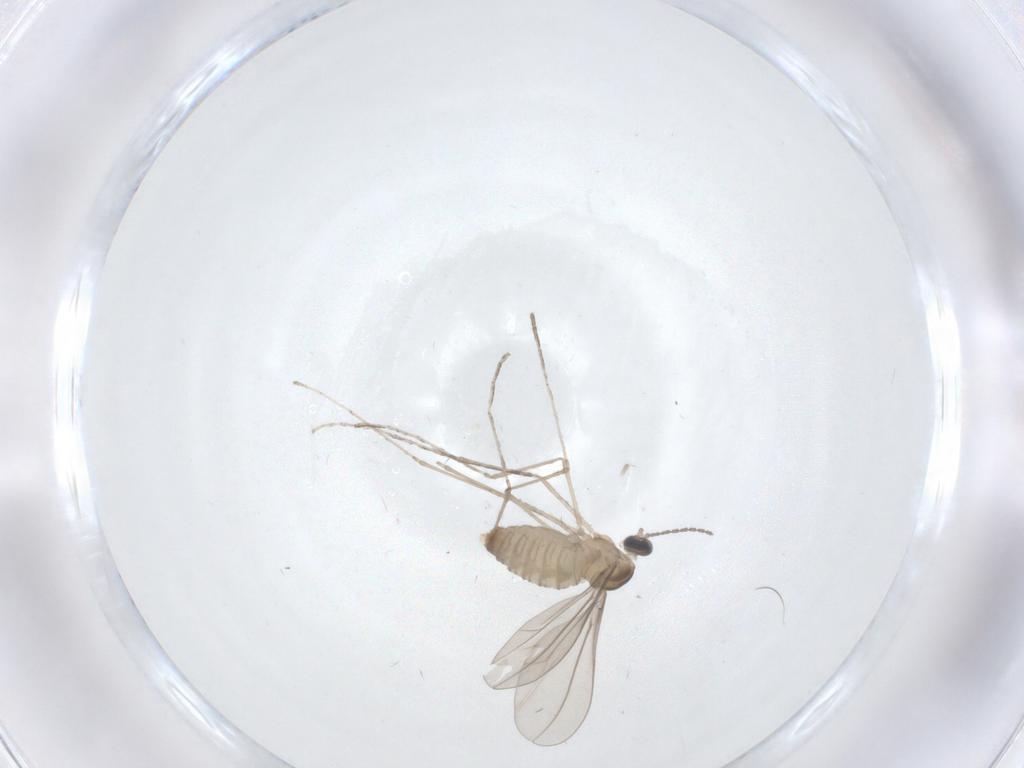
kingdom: Animalia
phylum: Arthropoda
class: Insecta
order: Diptera
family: Cecidomyiidae
